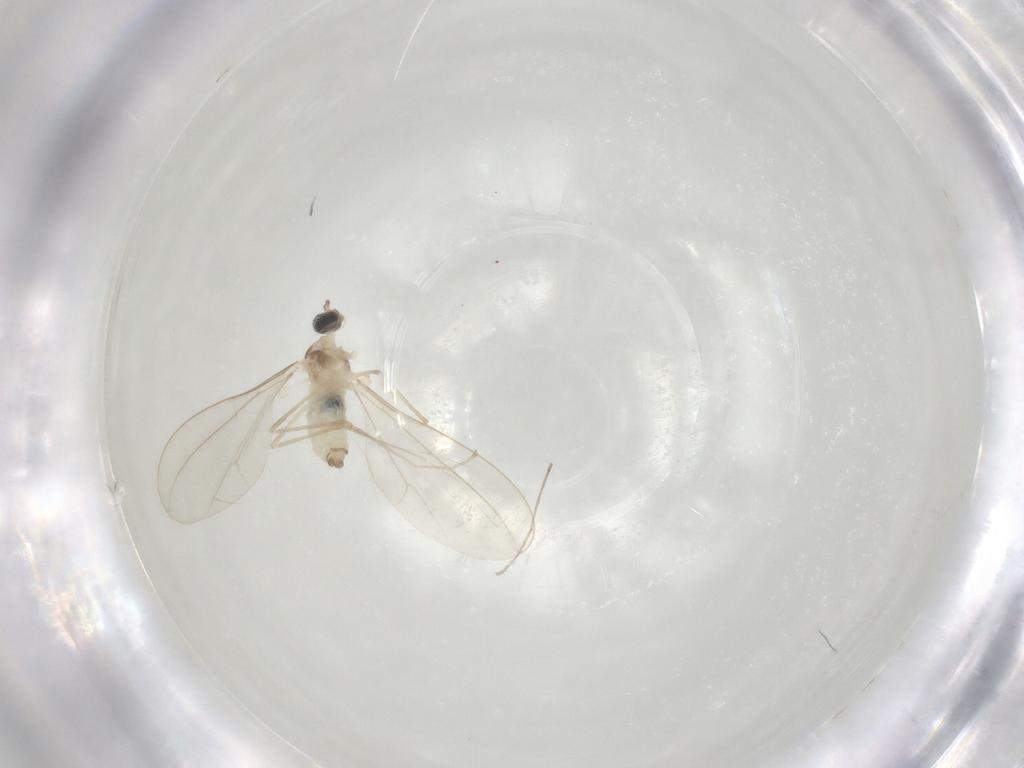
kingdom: Animalia
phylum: Arthropoda
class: Insecta
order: Diptera
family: Cecidomyiidae
